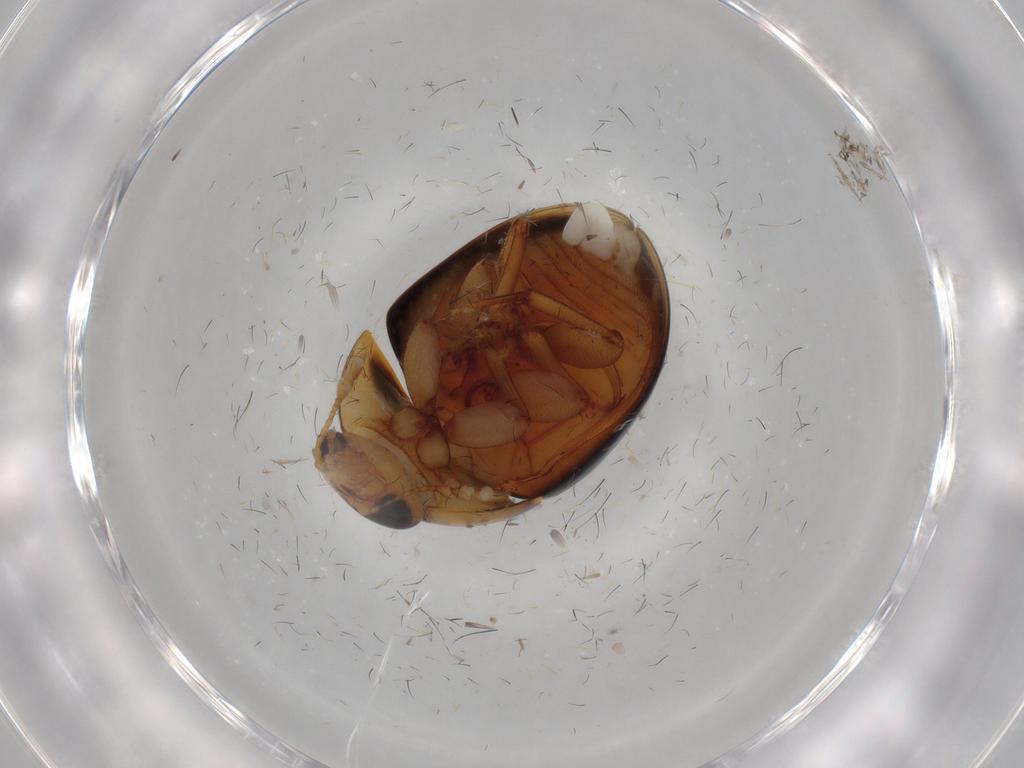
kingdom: Animalia
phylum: Arthropoda
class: Insecta
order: Coleoptera
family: Phalacridae
